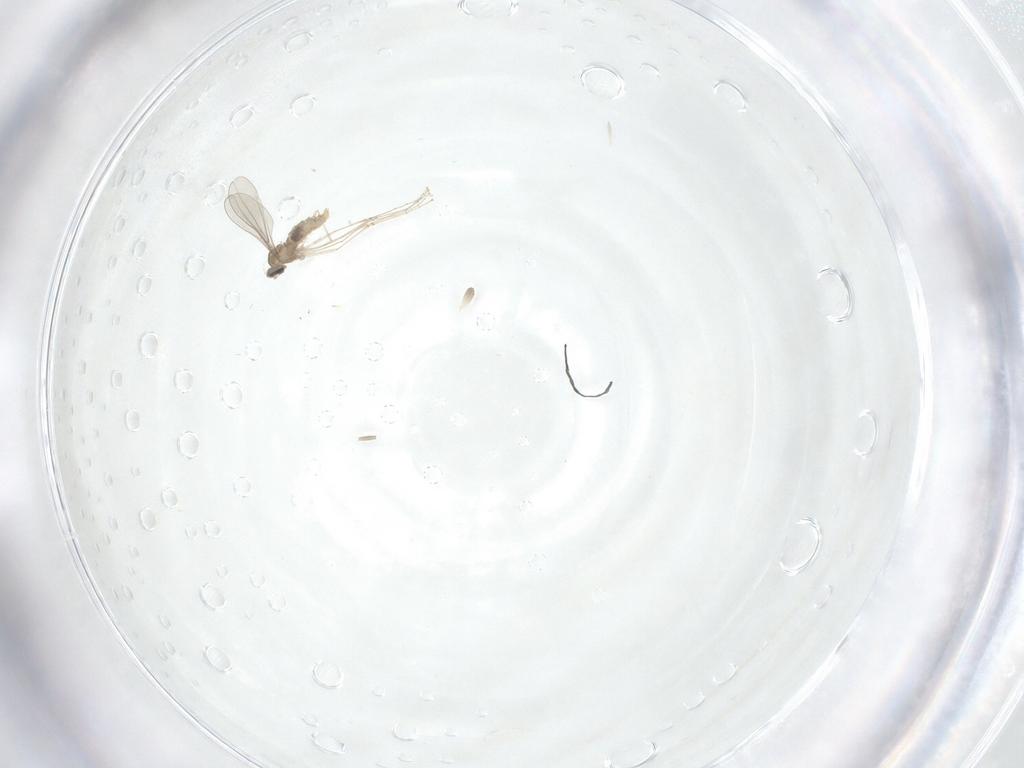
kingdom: Animalia
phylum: Arthropoda
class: Insecta
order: Diptera
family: Cecidomyiidae
